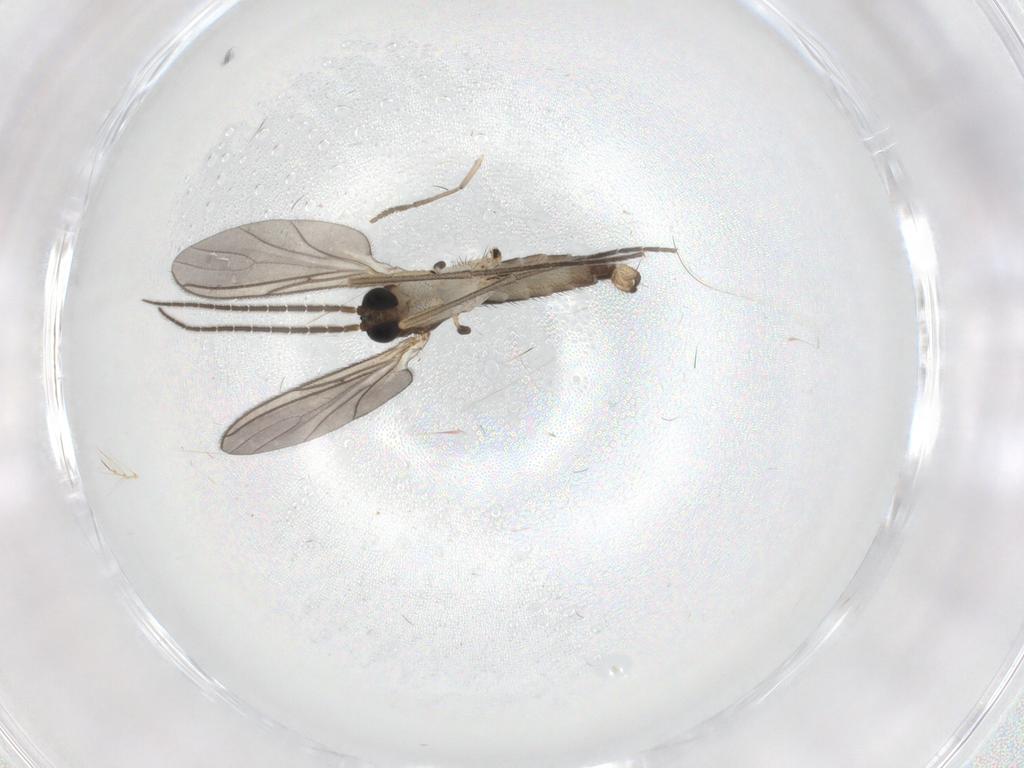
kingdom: Animalia
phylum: Arthropoda
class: Insecta
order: Diptera
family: Sciaridae
